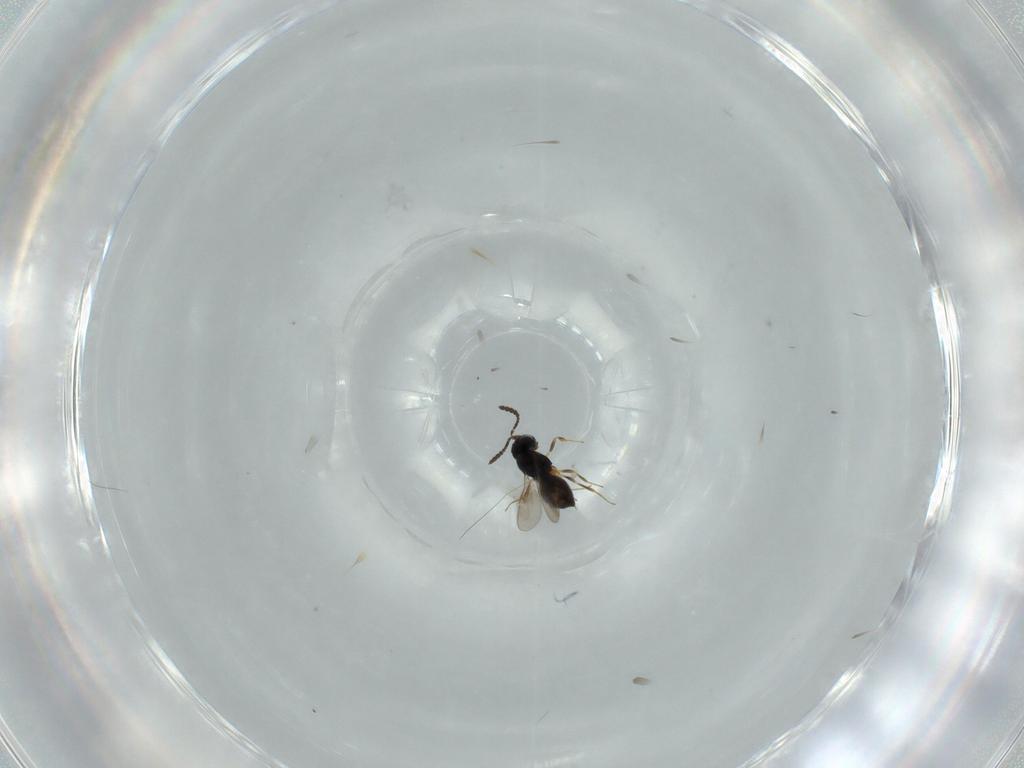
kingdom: Animalia
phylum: Arthropoda
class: Insecta
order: Hymenoptera
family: Scelionidae
